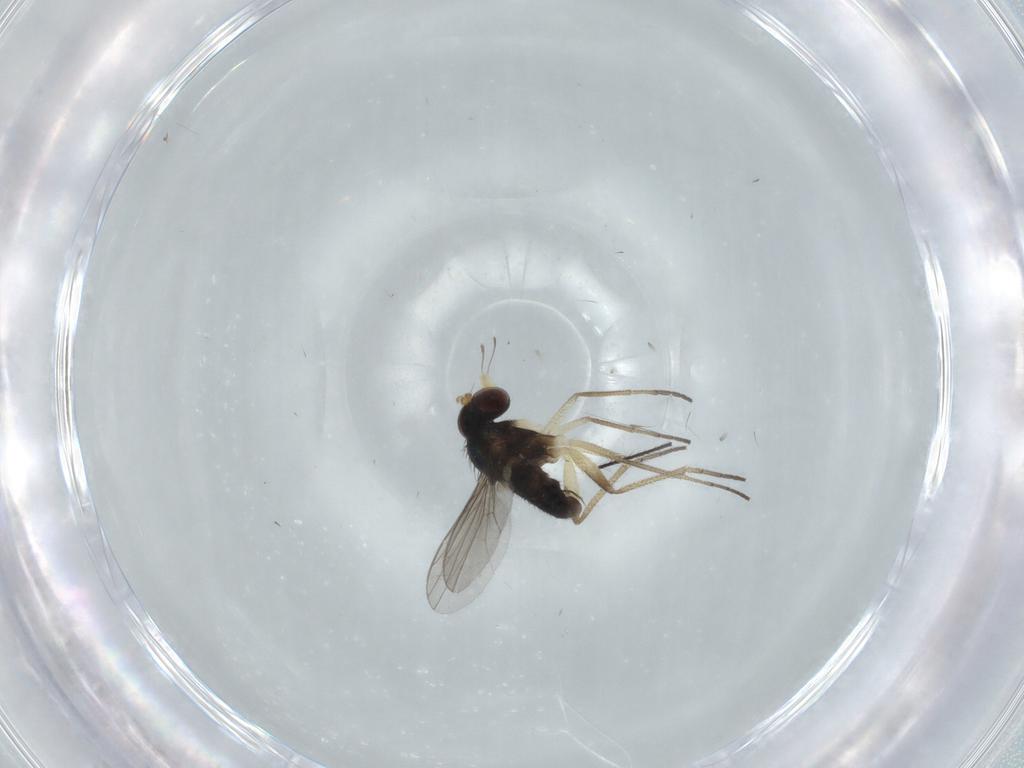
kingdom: Animalia
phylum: Arthropoda
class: Insecta
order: Diptera
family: Dolichopodidae
